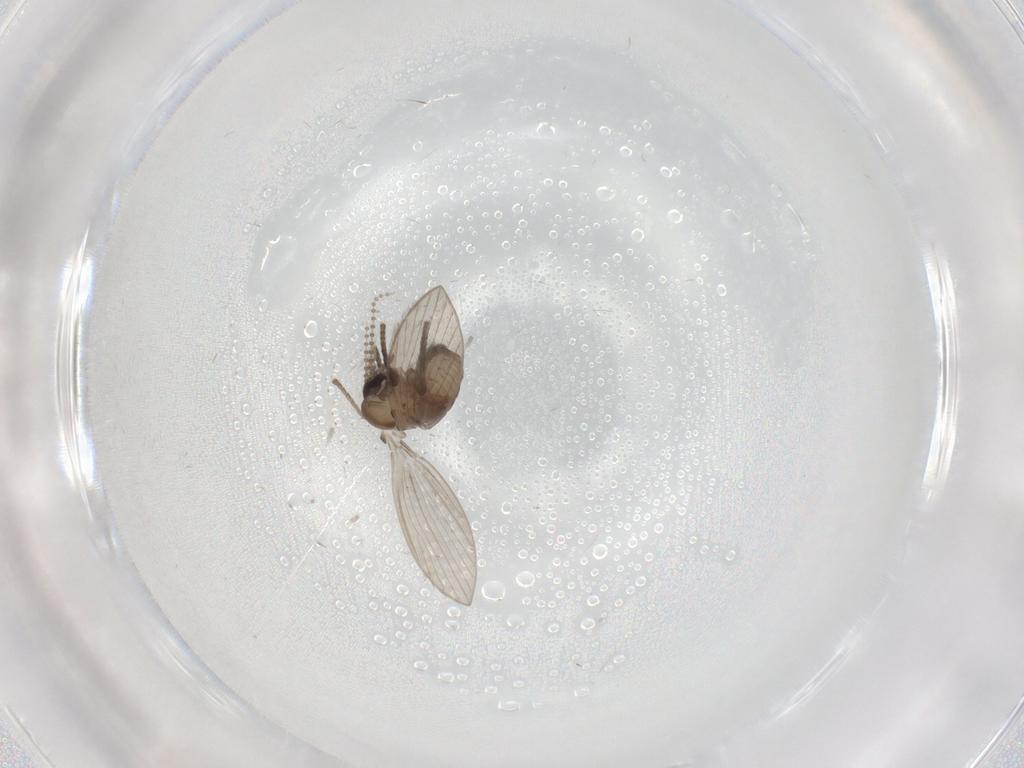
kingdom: Animalia
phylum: Arthropoda
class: Insecta
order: Diptera
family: Psychodidae
